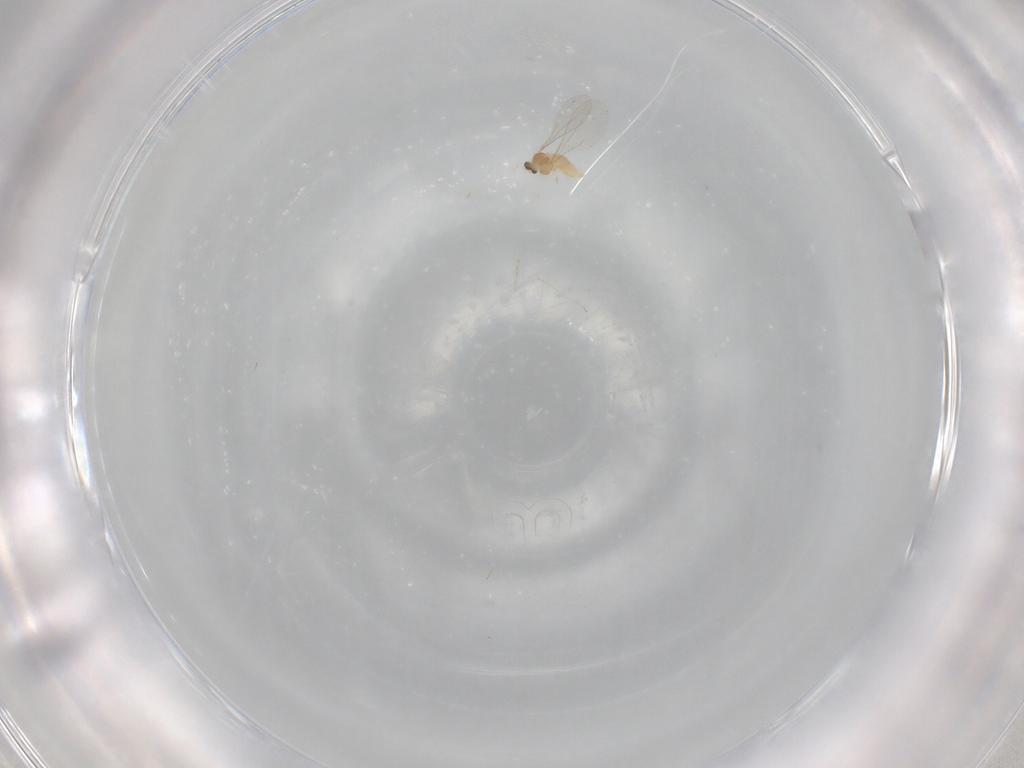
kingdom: Animalia
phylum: Arthropoda
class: Insecta
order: Diptera
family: Cecidomyiidae
